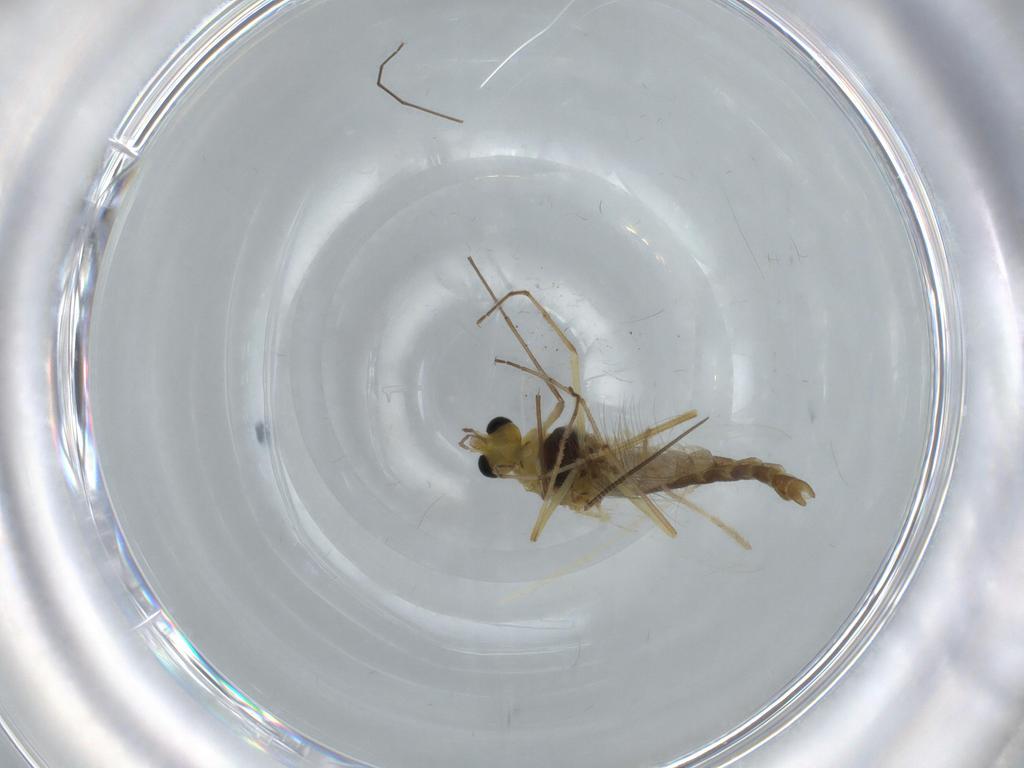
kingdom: Animalia
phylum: Arthropoda
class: Insecta
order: Diptera
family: Chironomidae
